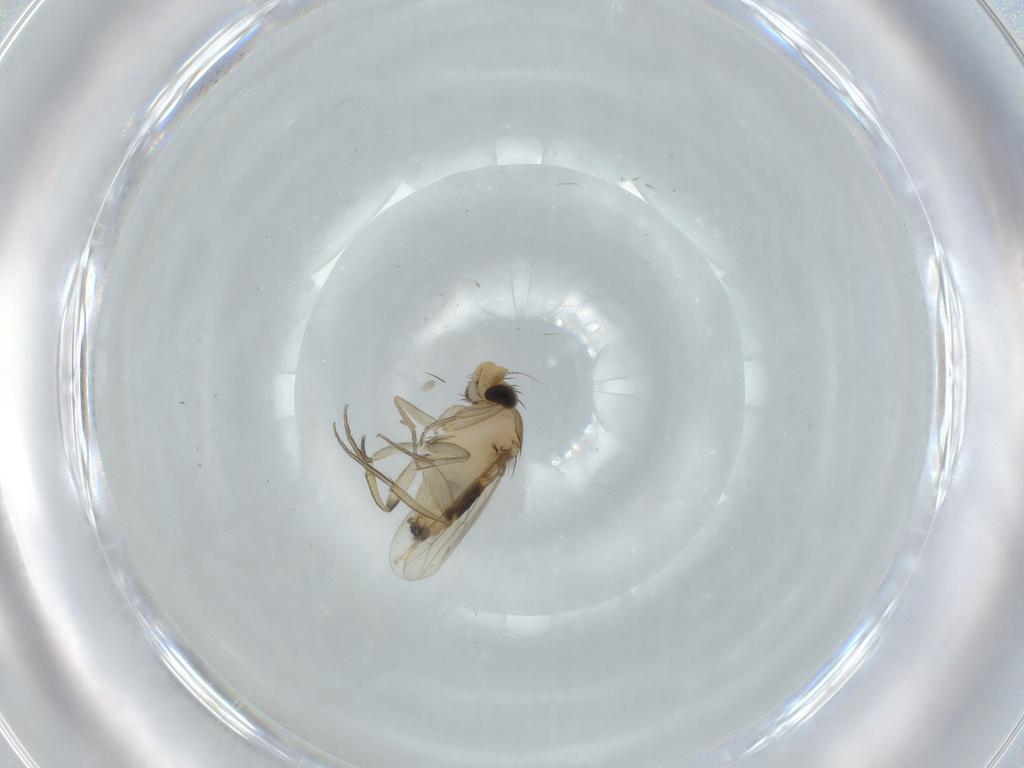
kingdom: Animalia
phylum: Arthropoda
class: Insecta
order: Diptera
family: Phoridae
